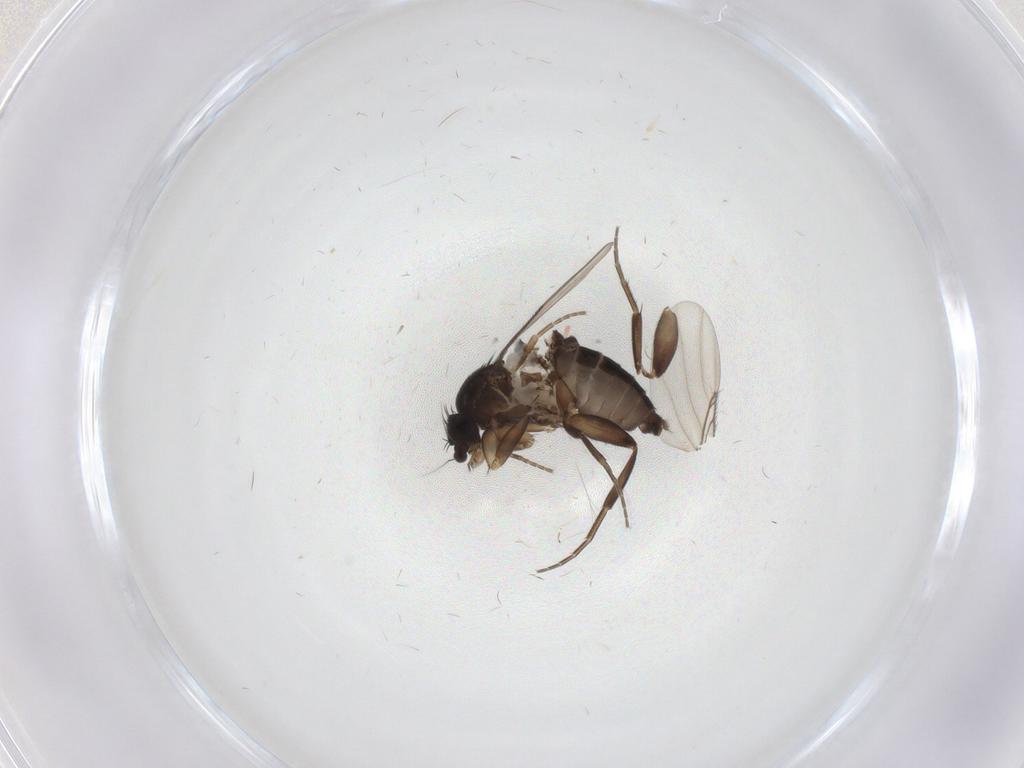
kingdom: Animalia
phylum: Arthropoda
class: Insecta
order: Diptera
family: Phoridae
